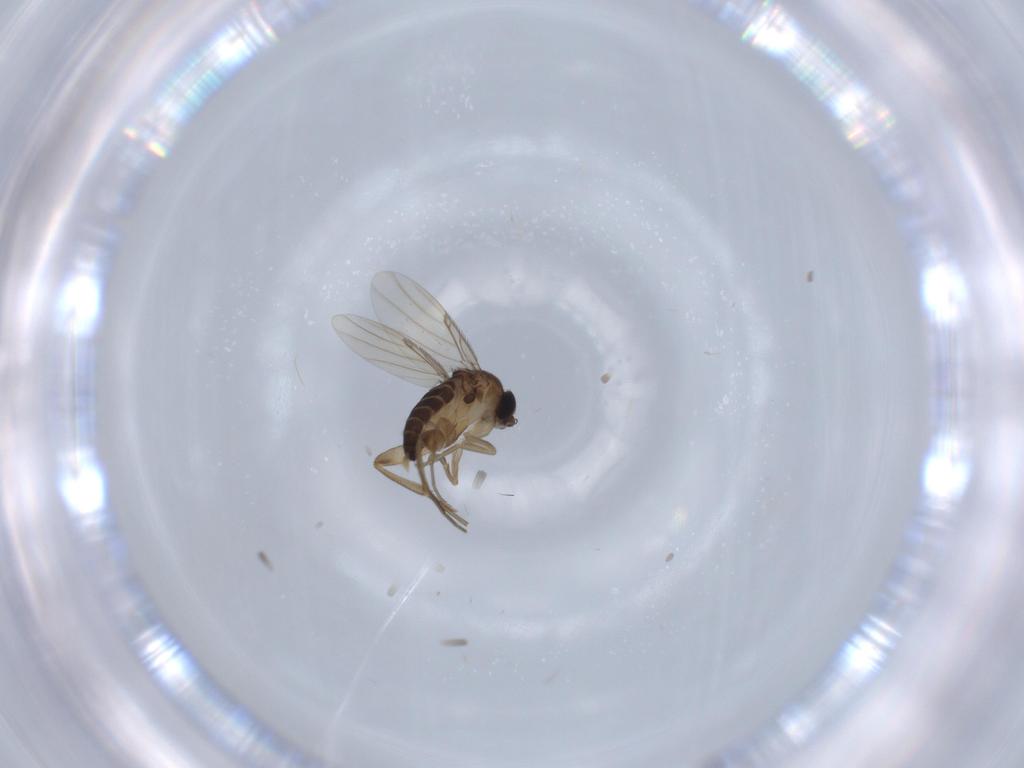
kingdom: Animalia
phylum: Arthropoda
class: Insecta
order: Diptera
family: Phoridae
